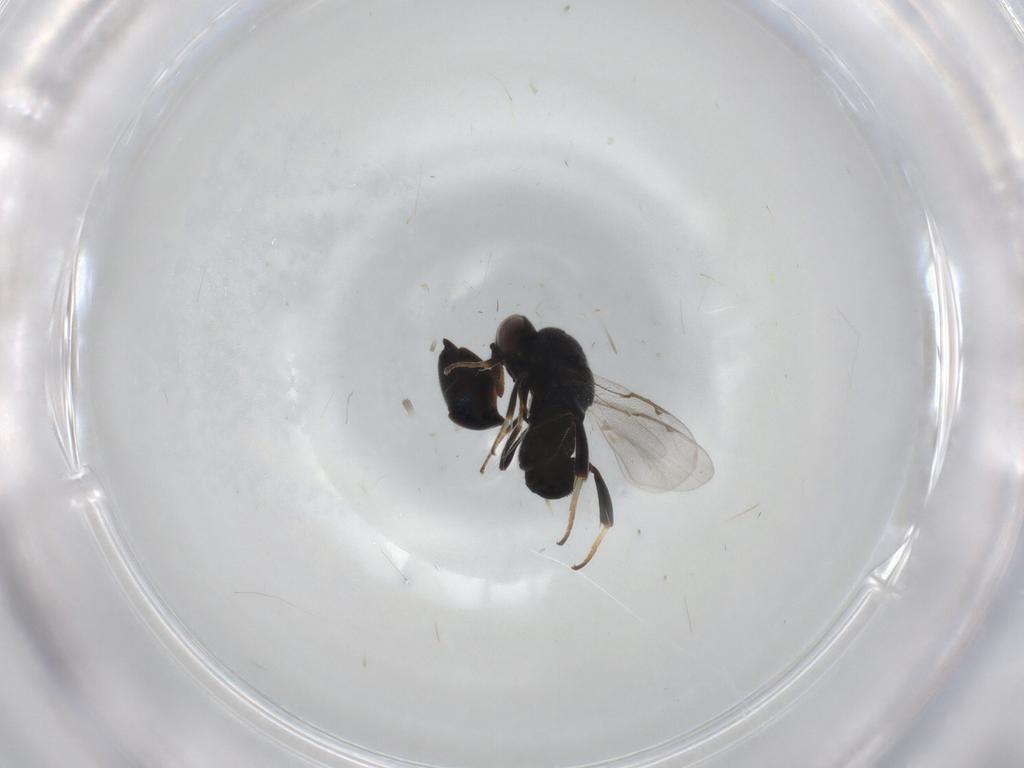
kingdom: Animalia
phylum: Arthropoda
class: Insecta
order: Hymenoptera
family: Torymidae
